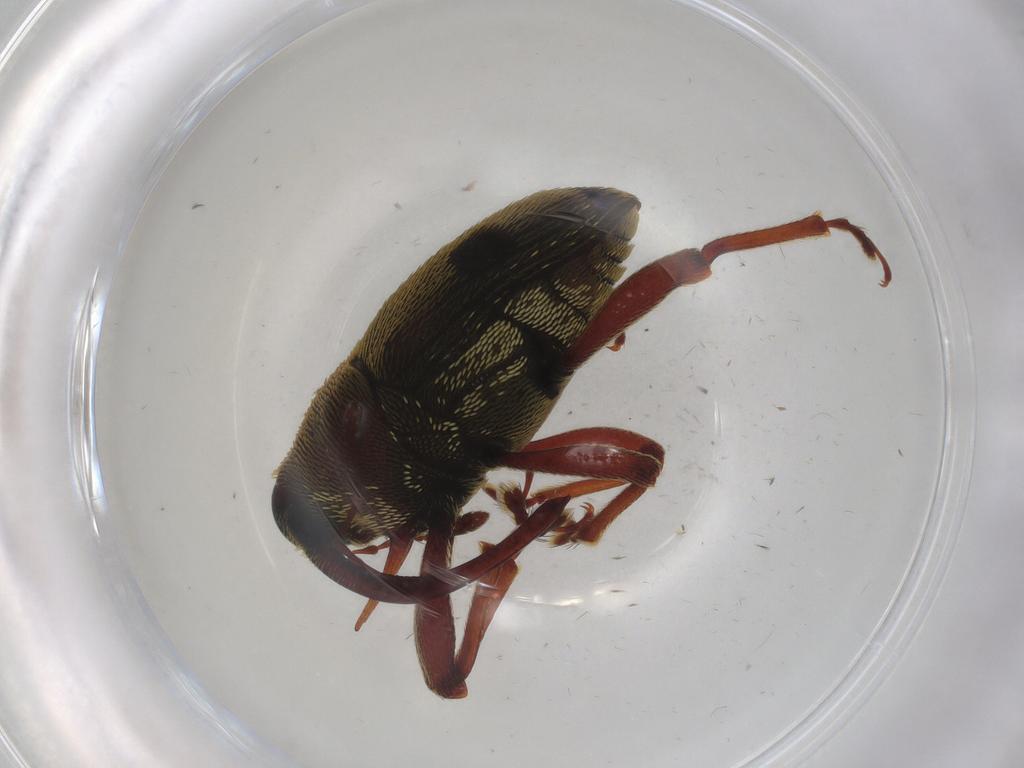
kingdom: Animalia
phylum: Arthropoda
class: Insecta
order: Coleoptera
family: Curculionidae
